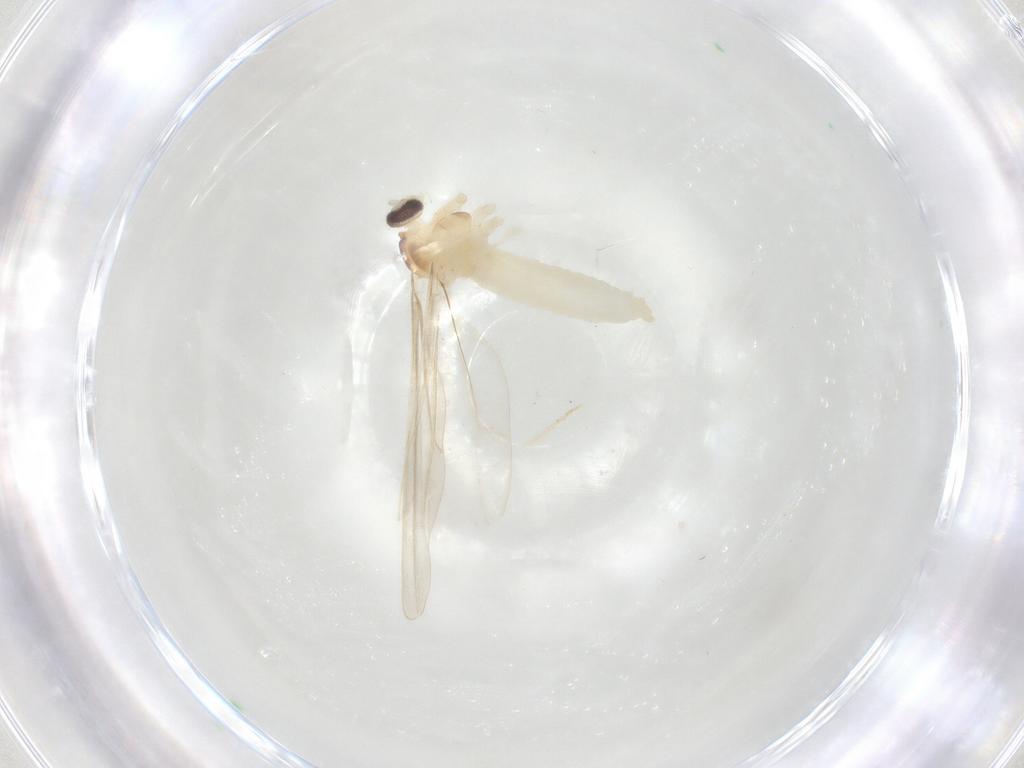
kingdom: Animalia
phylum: Arthropoda
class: Insecta
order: Diptera
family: Cecidomyiidae
